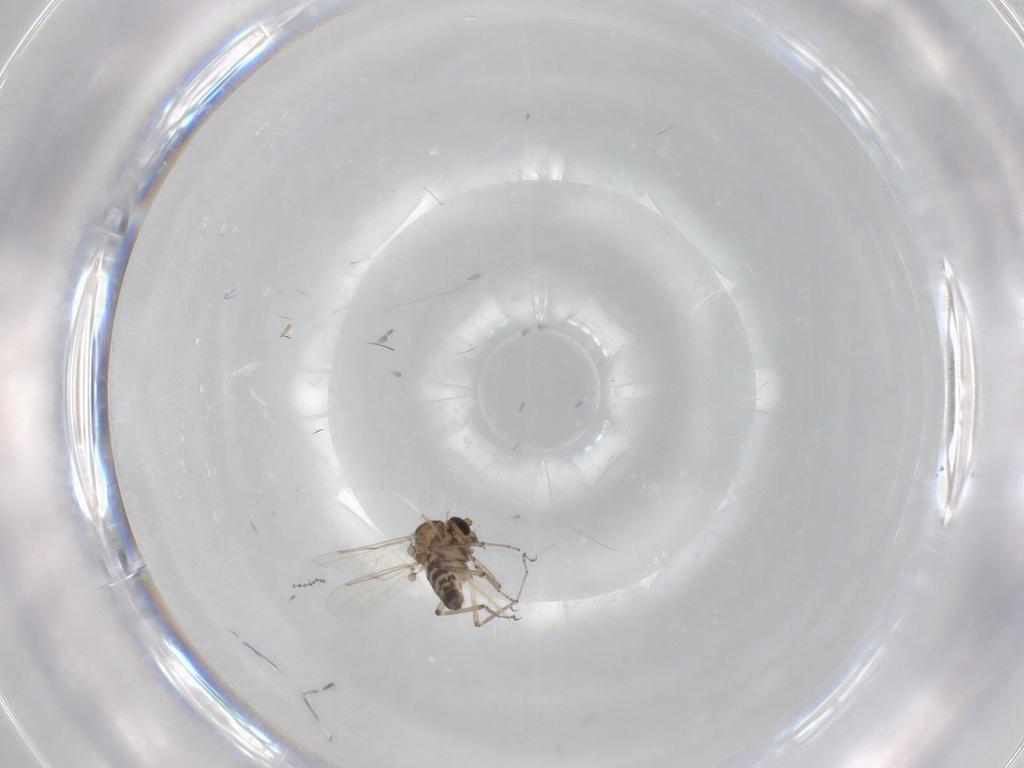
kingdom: Animalia
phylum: Arthropoda
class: Insecta
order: Diptera
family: Ceratopogonidae
